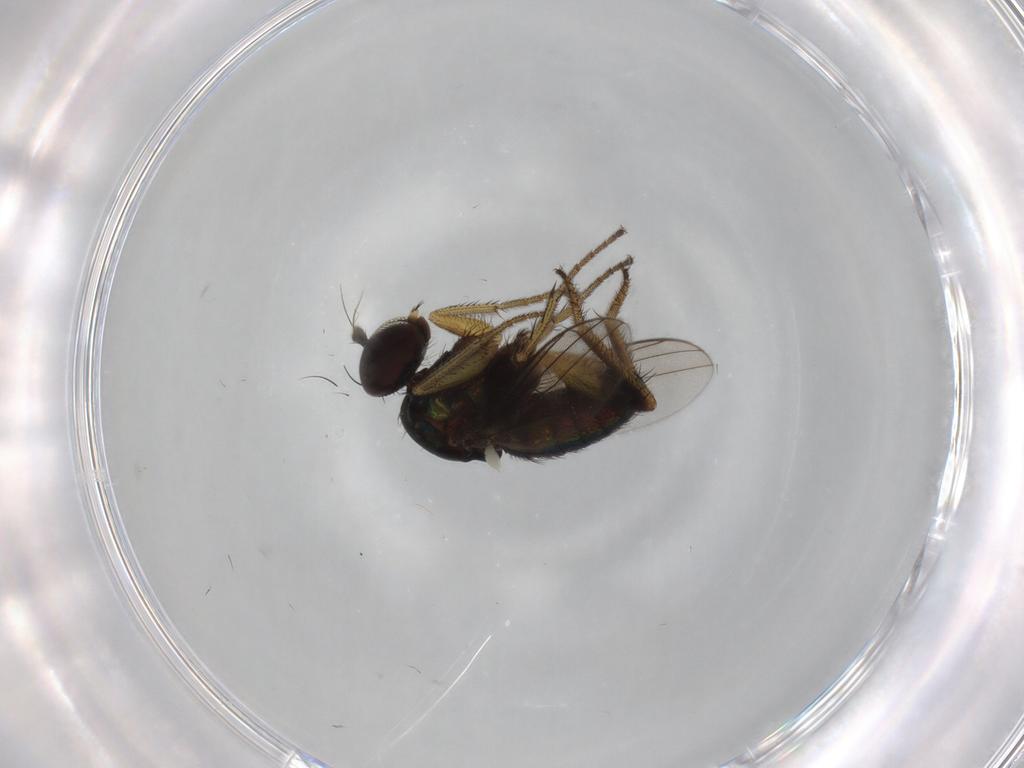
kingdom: Animalia
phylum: Arthropoda
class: Insecta
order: Diptera
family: Dolichopodidae
